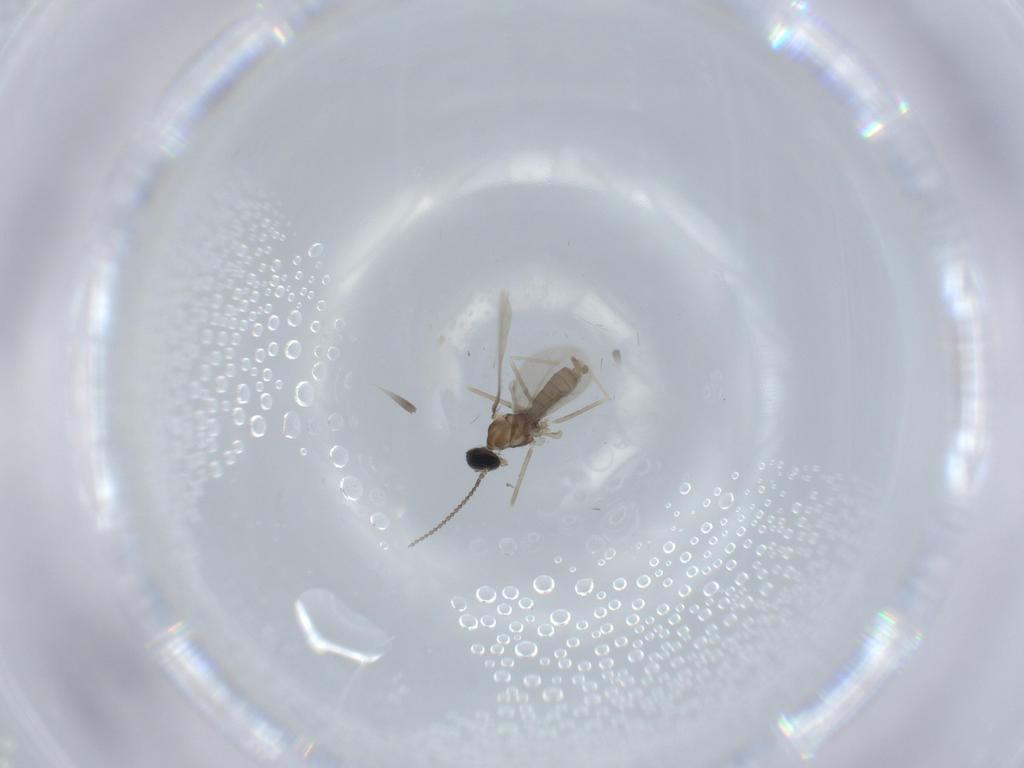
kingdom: Animalia
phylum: Arthropoda
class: Insecta
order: Diptera
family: Cecidomyiidae
